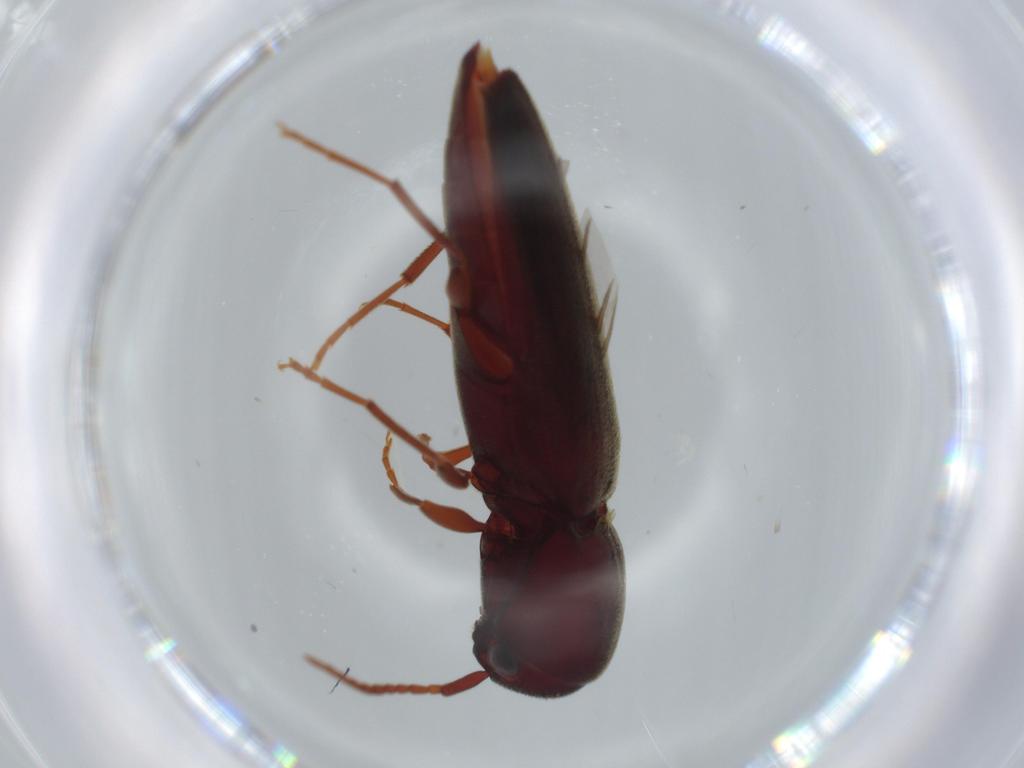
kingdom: Animalia
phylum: Arthropoda
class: Insecta
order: Coleoptera
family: Eucnemidae
